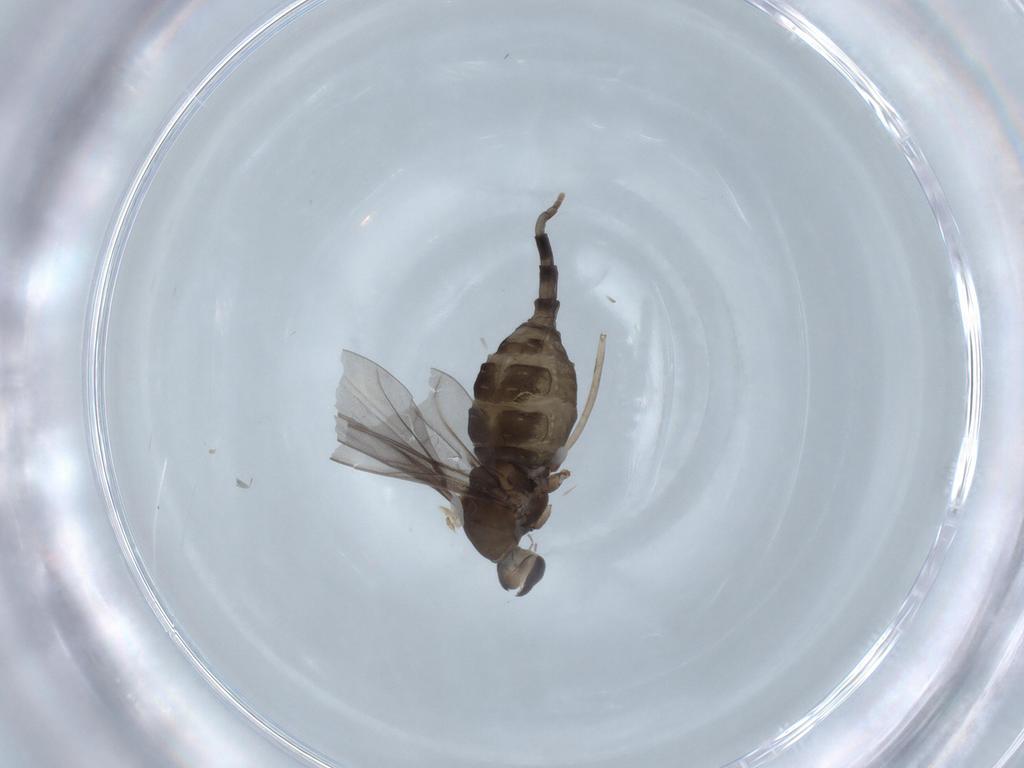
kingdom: Animalia
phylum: Arthropoda
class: Insecta
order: Diptera
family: Cecidomyiidae
